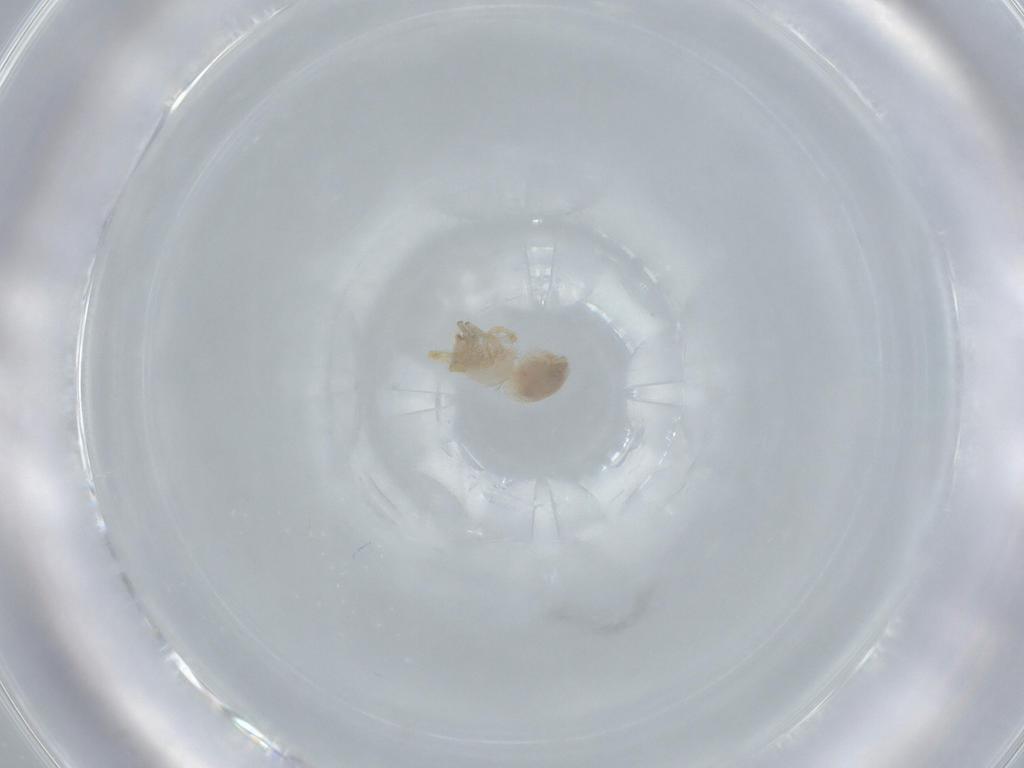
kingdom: Animalia
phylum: Arthropoda
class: Arachnida
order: Araneae
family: Oonopidae
